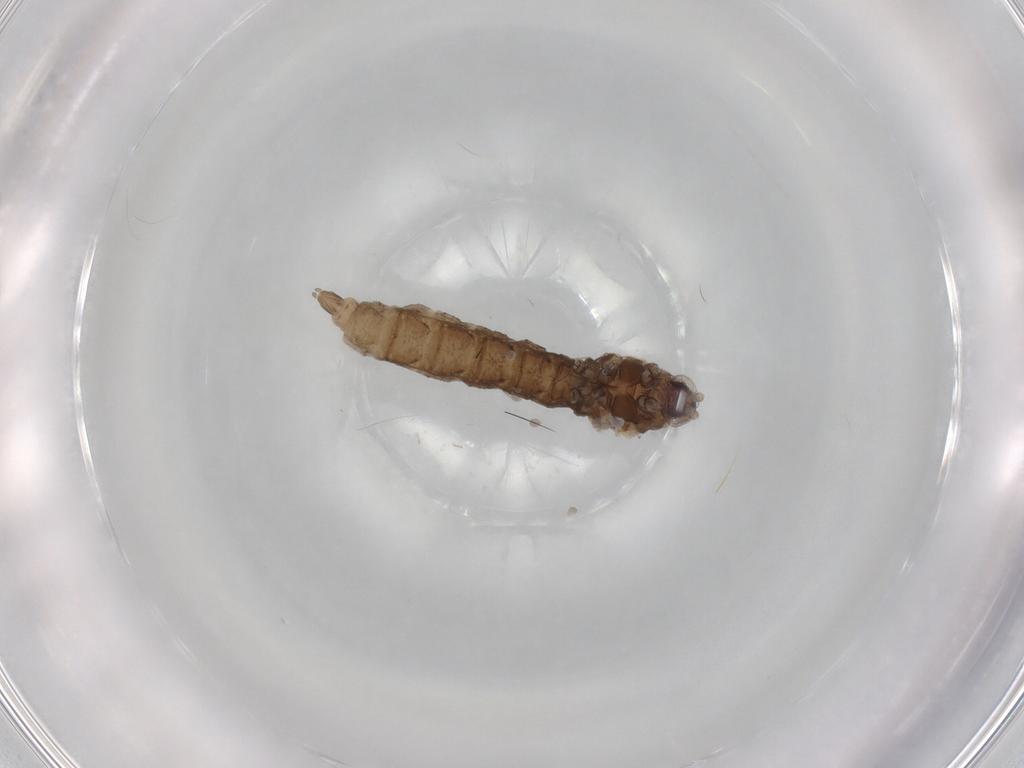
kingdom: Animalia
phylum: Arthropoda
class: Insecta
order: Diptera
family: Cecidomyiidae
